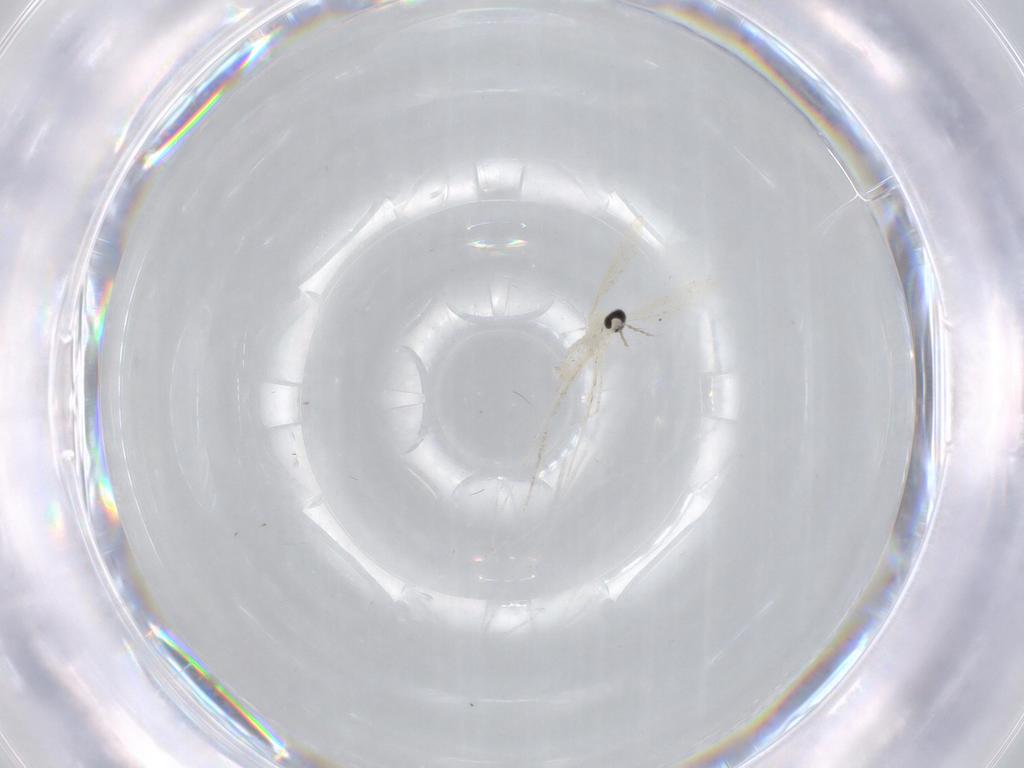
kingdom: Animalia
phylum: Arthropoda
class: Insecta
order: Diptera
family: Cecidomyiidae
